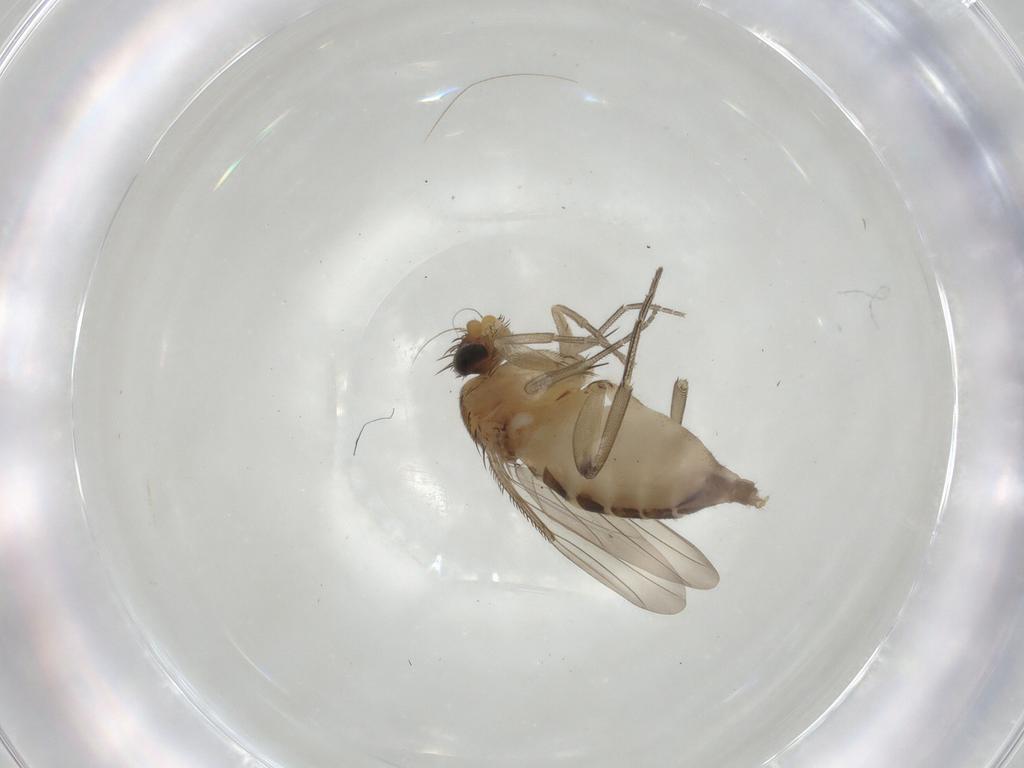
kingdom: Animalia
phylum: Arthropoda
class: Insecta
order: Diptera
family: Phoridae
